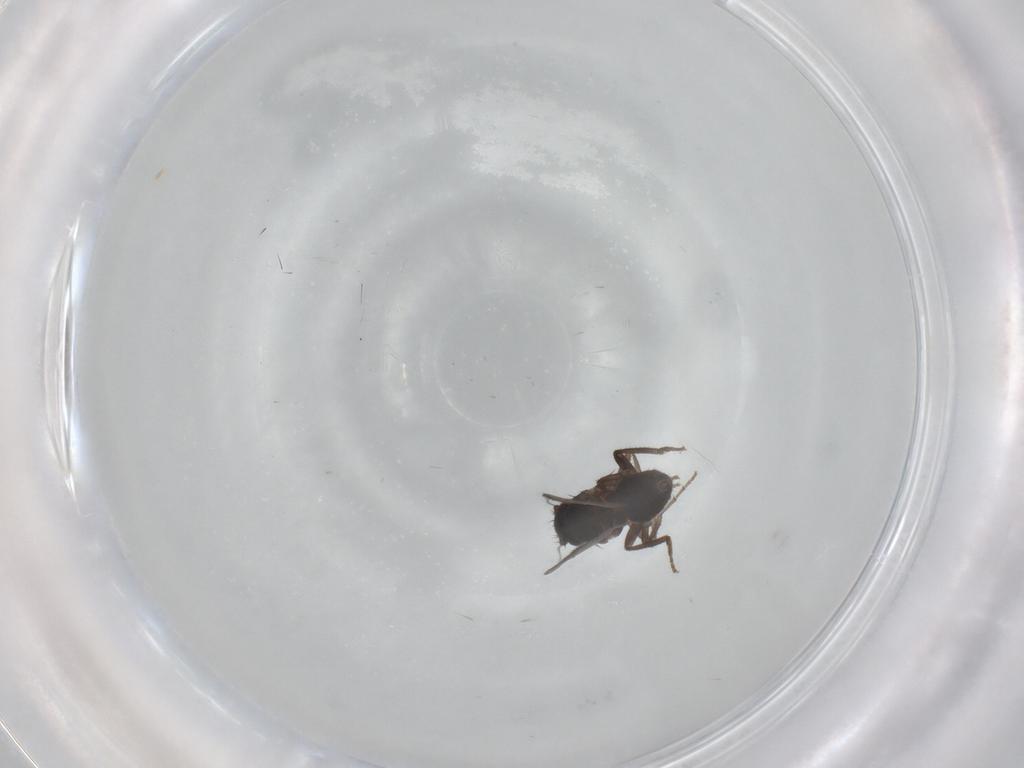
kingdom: Animalia
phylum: Arthropoda
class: Insecta
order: Diptera
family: Sphaeroceridae
